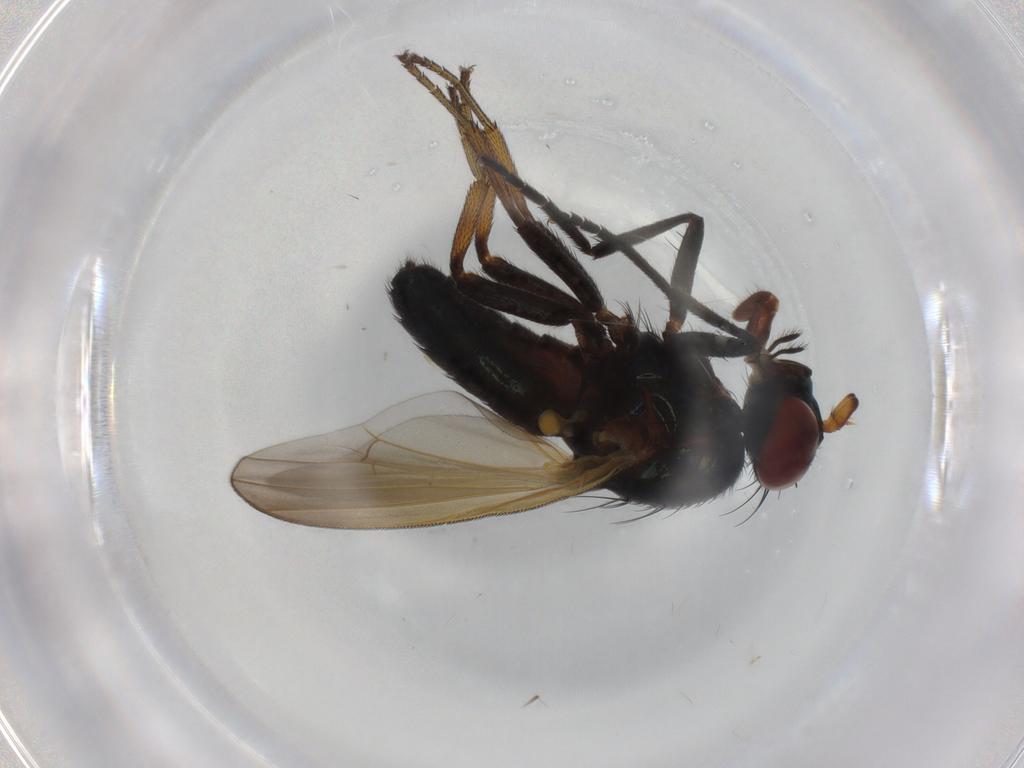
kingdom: Animalia
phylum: Arthropoda
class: Insecta
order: Diptera
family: Lauxaniidae
